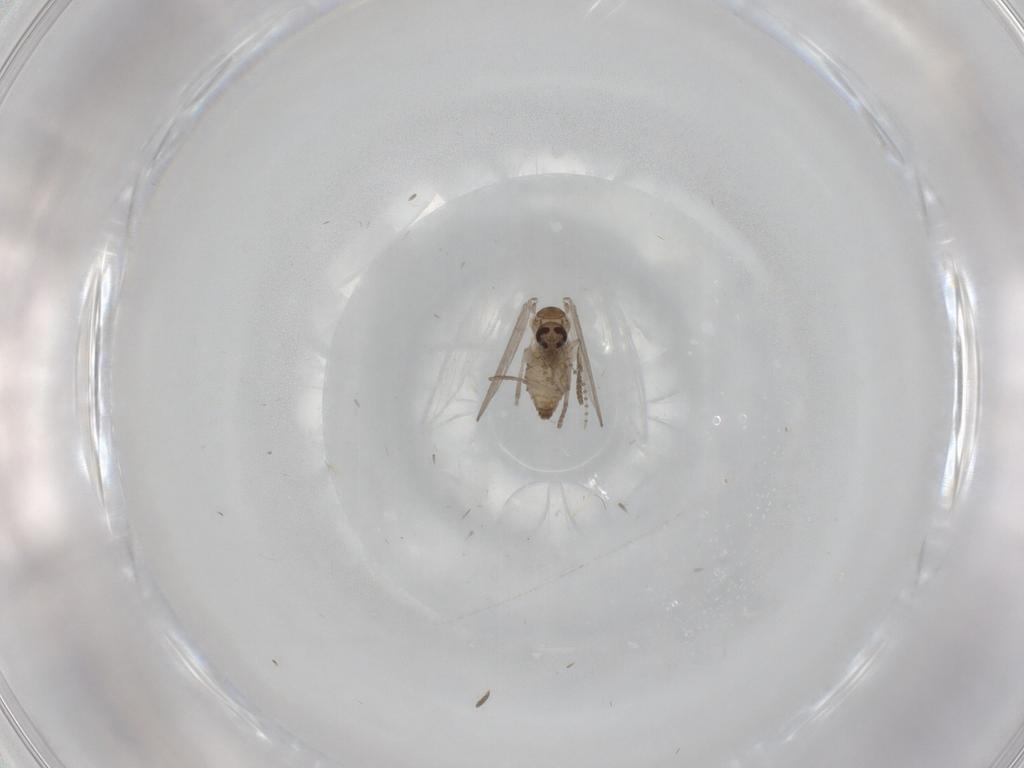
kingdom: Animalia
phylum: Arthropoda
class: Insecta
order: Diptera
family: Psychodidae
